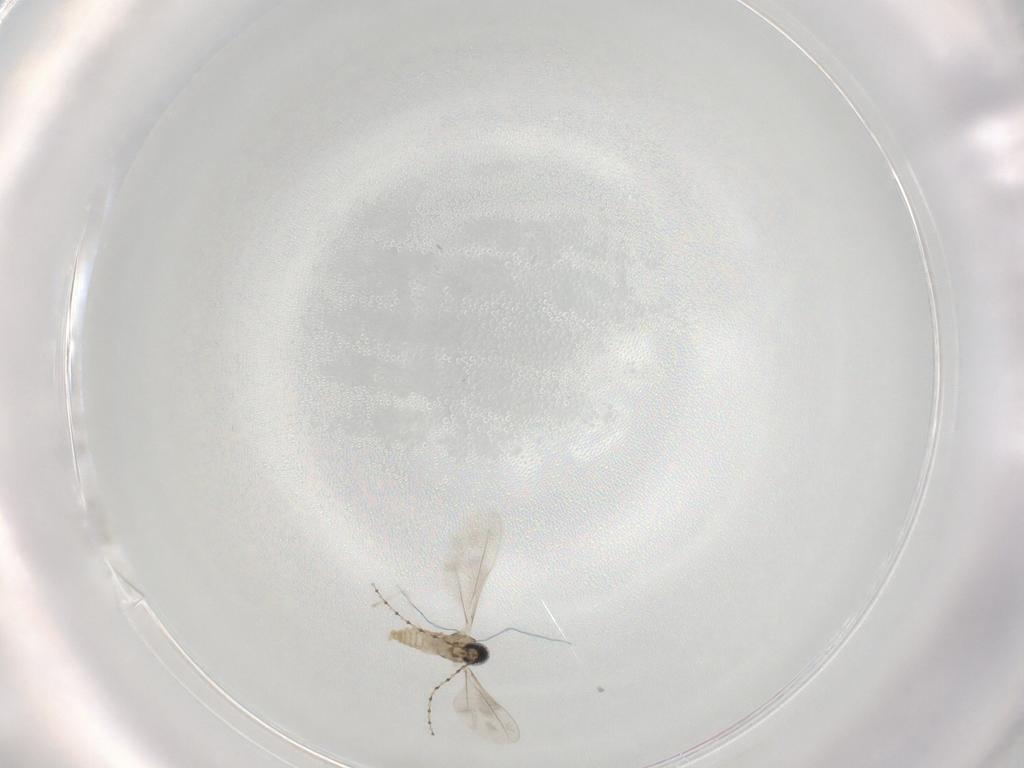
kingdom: Animalia
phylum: Arthropoda
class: Insecta
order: Diptera
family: Cecidomyiidae
